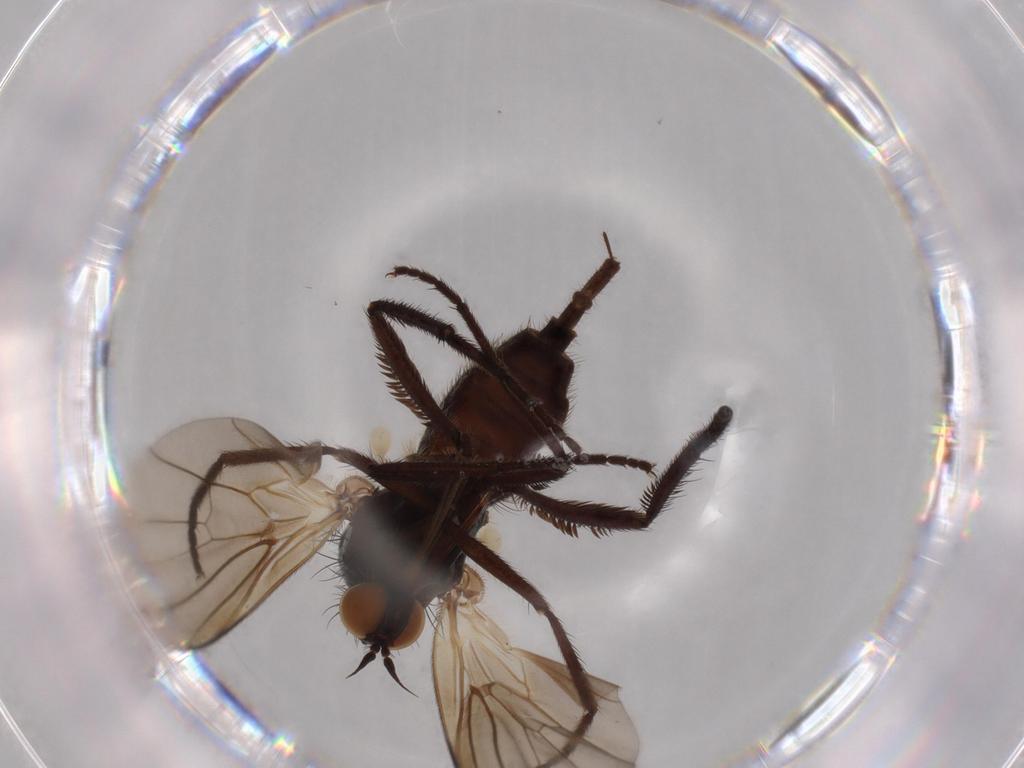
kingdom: Animalia
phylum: Arthropoda
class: Insecta
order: Diptera
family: Empididae
